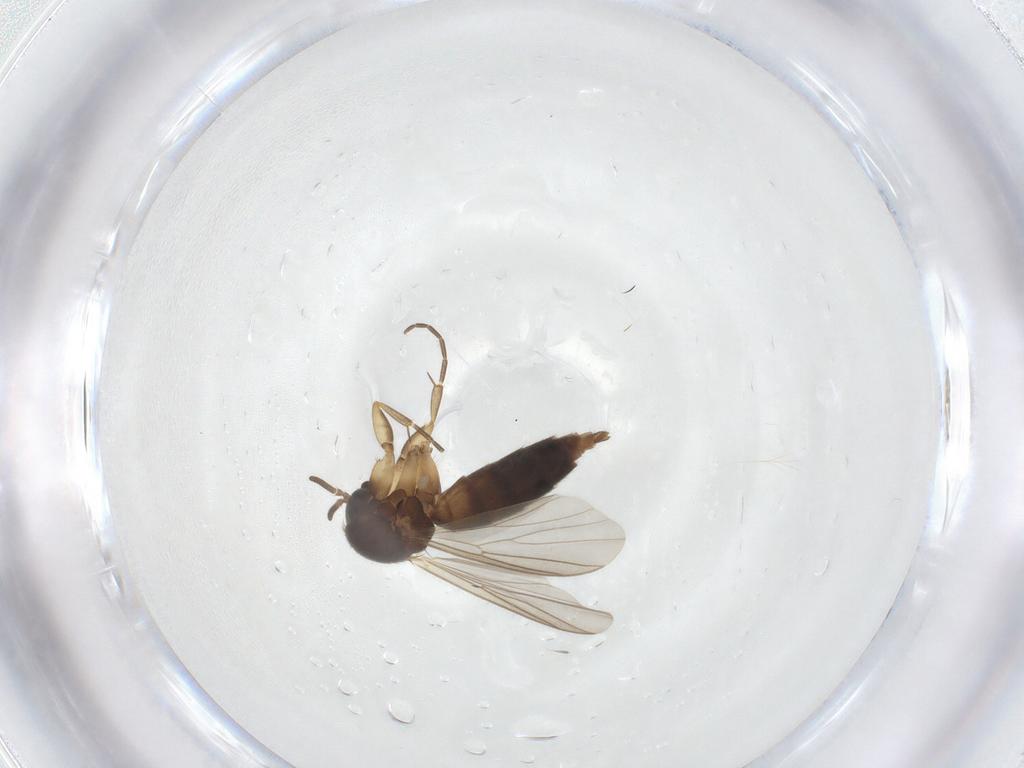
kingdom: Animalia
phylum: Arthropoda
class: Insecta
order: Diptera
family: Mycetophilidae
